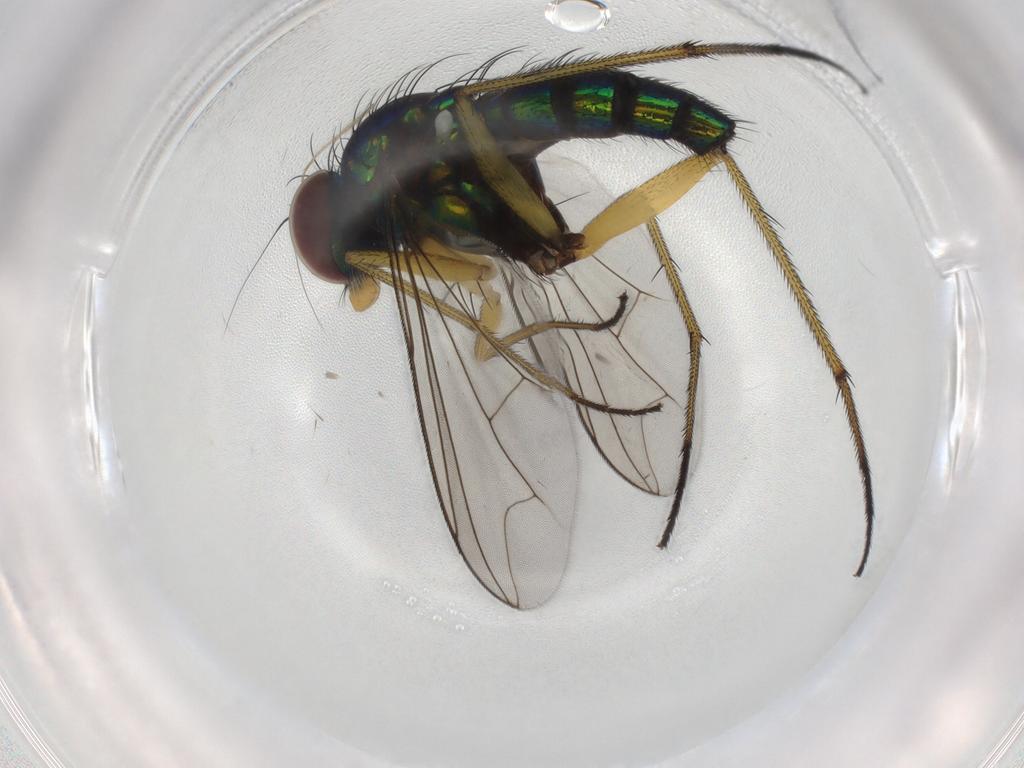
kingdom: Animalia
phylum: Arthropoda
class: Insecta
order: Diptera
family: Dolichopodidae
